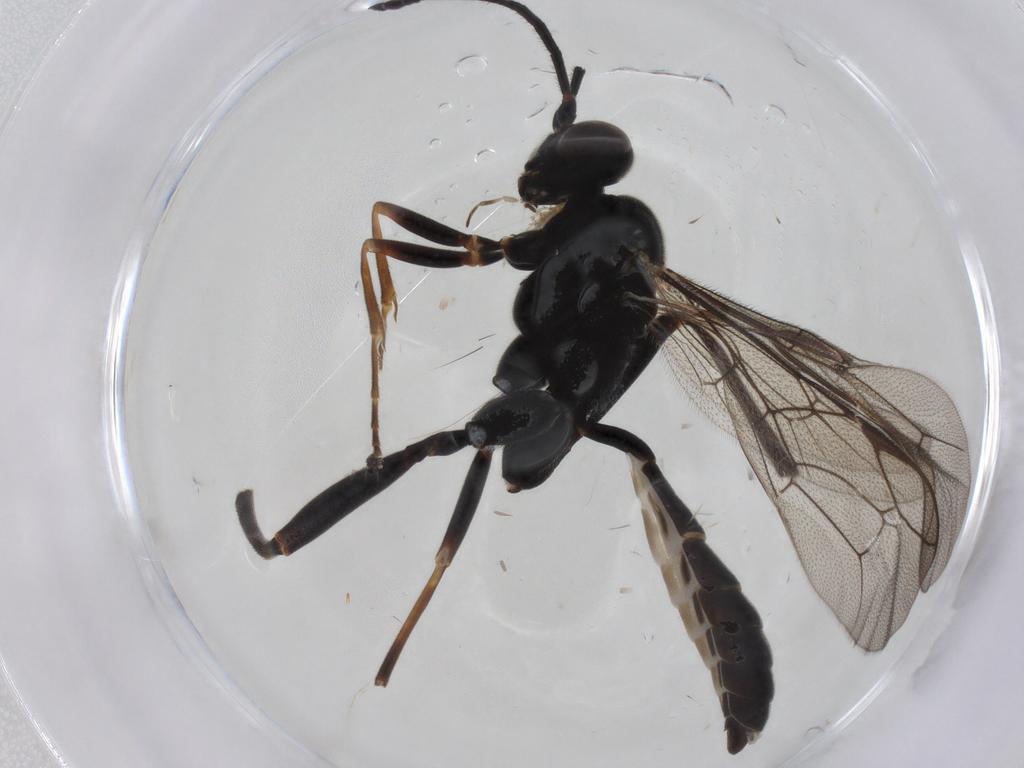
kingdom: Animalia
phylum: Arthropoda
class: Insecta
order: Hymenoptera
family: Ichneumonidae
